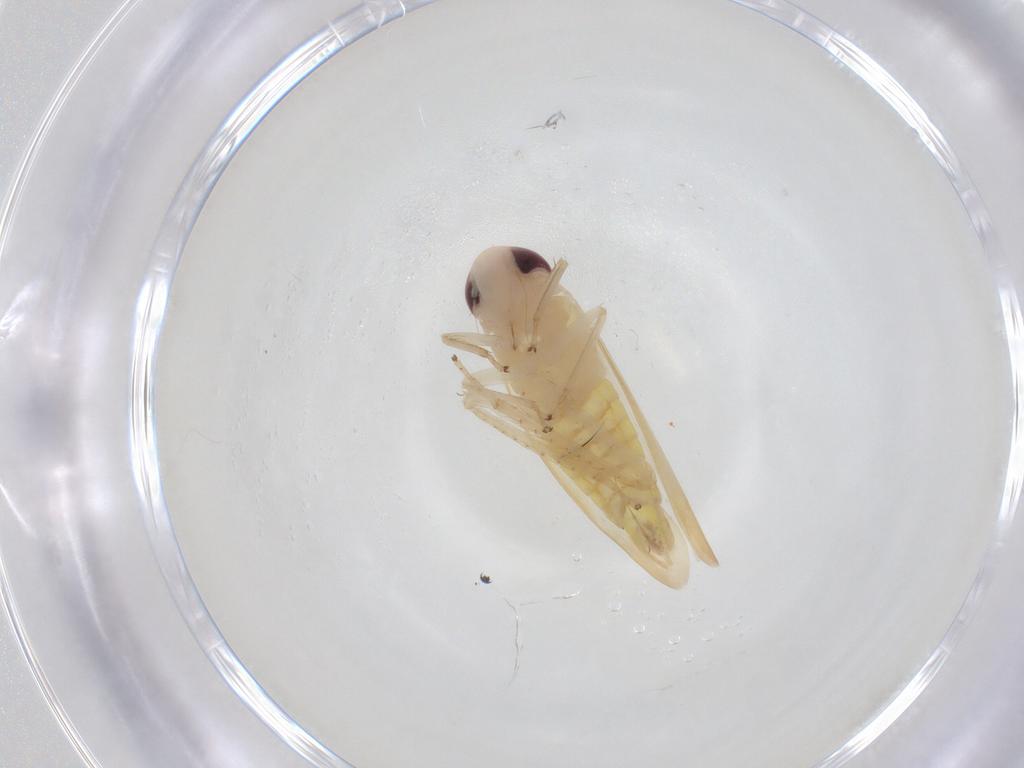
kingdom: Animalia
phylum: Arthropoda
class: Insecta
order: Hemiptera
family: Cicadellidae
